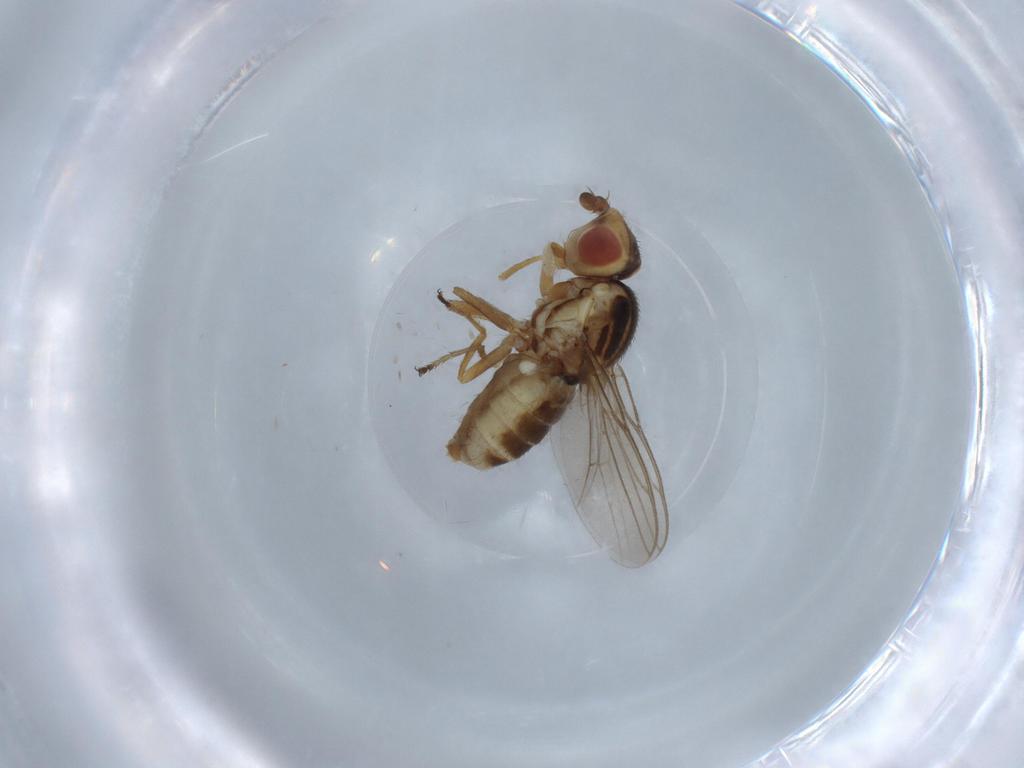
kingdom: Animalia
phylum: Arthropoda
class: Insecta
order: Diptera
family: Chloropidae
